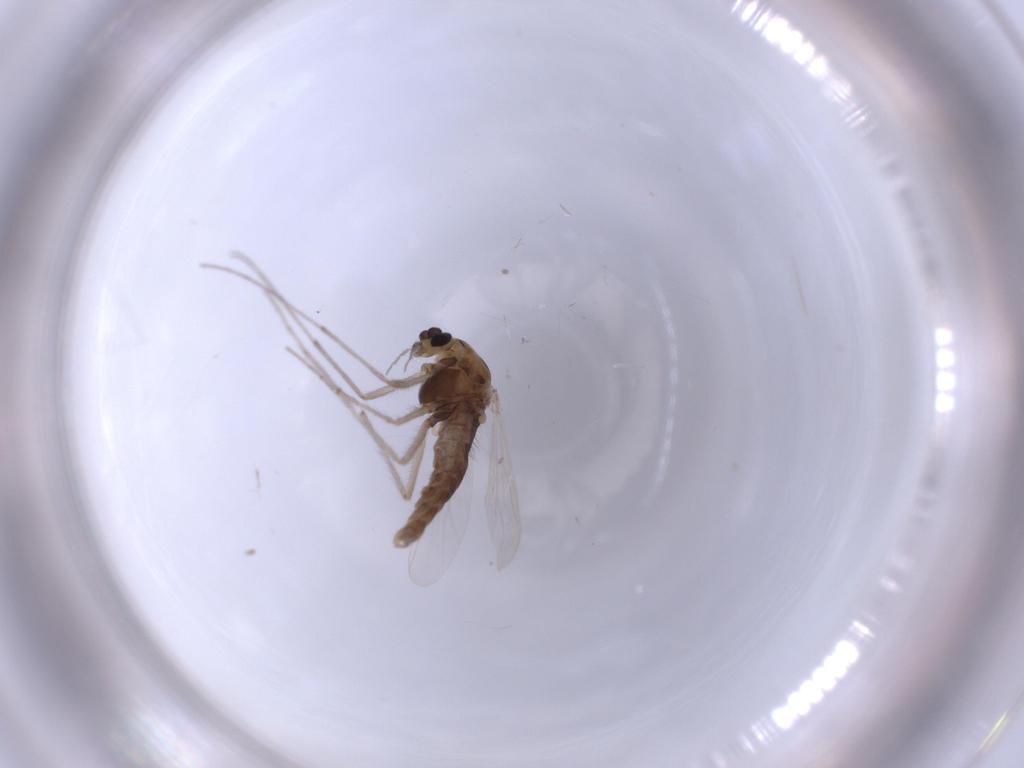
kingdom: Animalia
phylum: Arthropoda
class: Insecta
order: Diptera
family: Chironomidae
